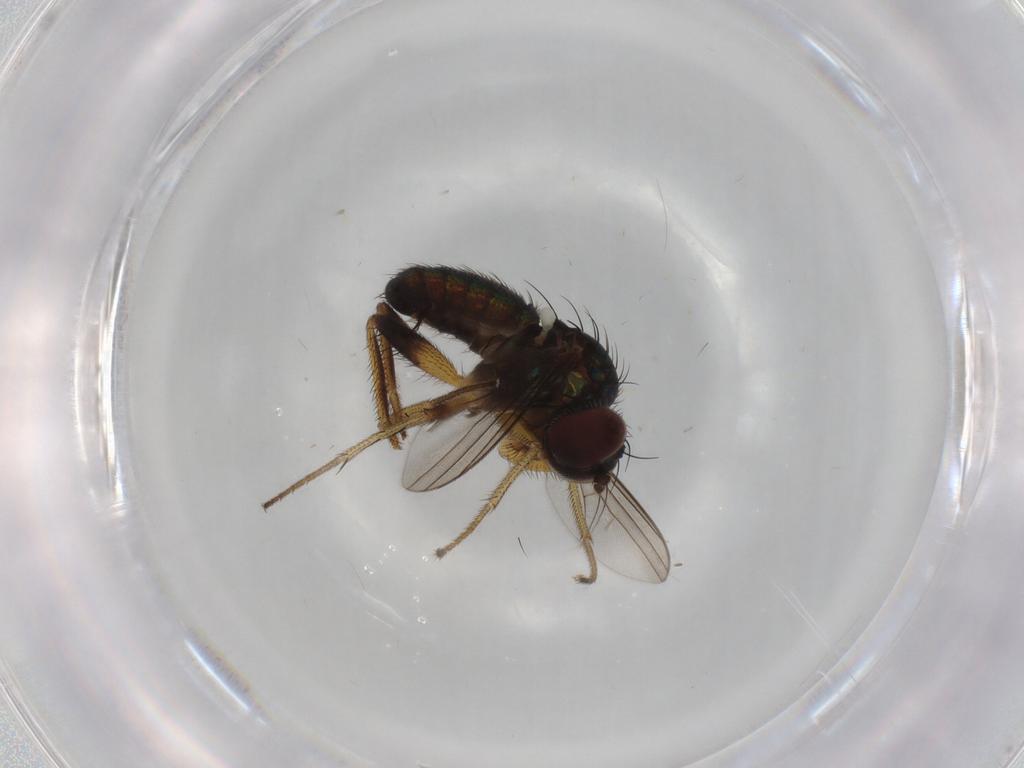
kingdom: Animalia
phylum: Arthropoda
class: Insecta
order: Diptera
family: Dolichopodidae
